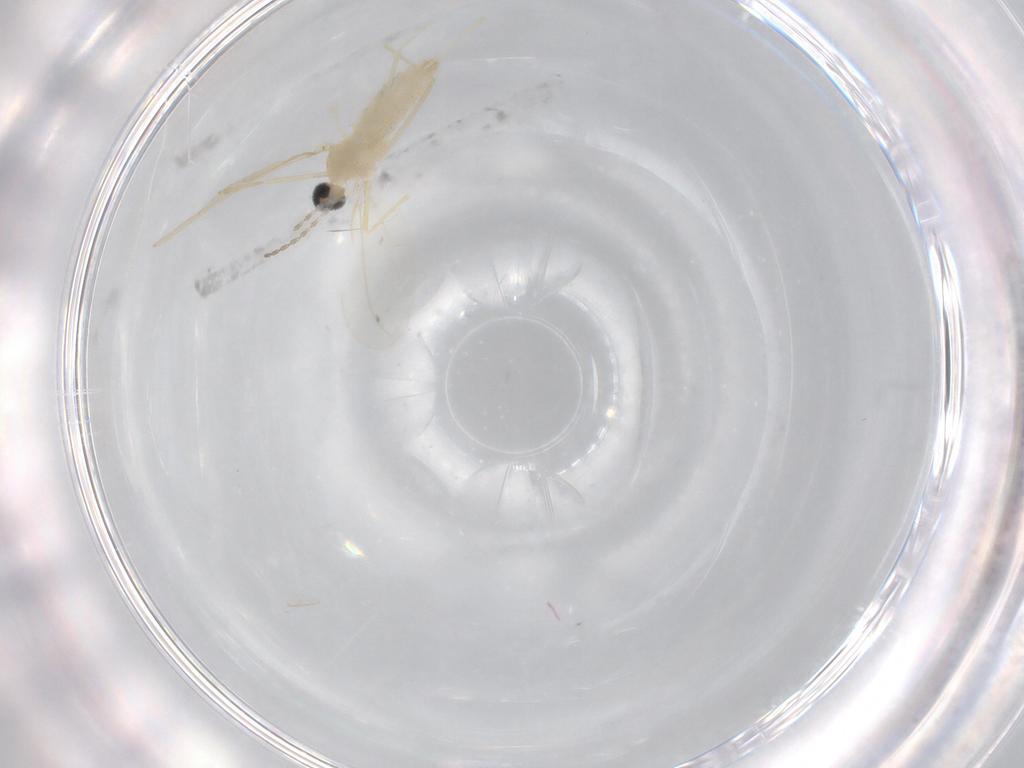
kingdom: Animalia
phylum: Arthropoda
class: Insecta
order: Diptera
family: Cecidomyiidae
